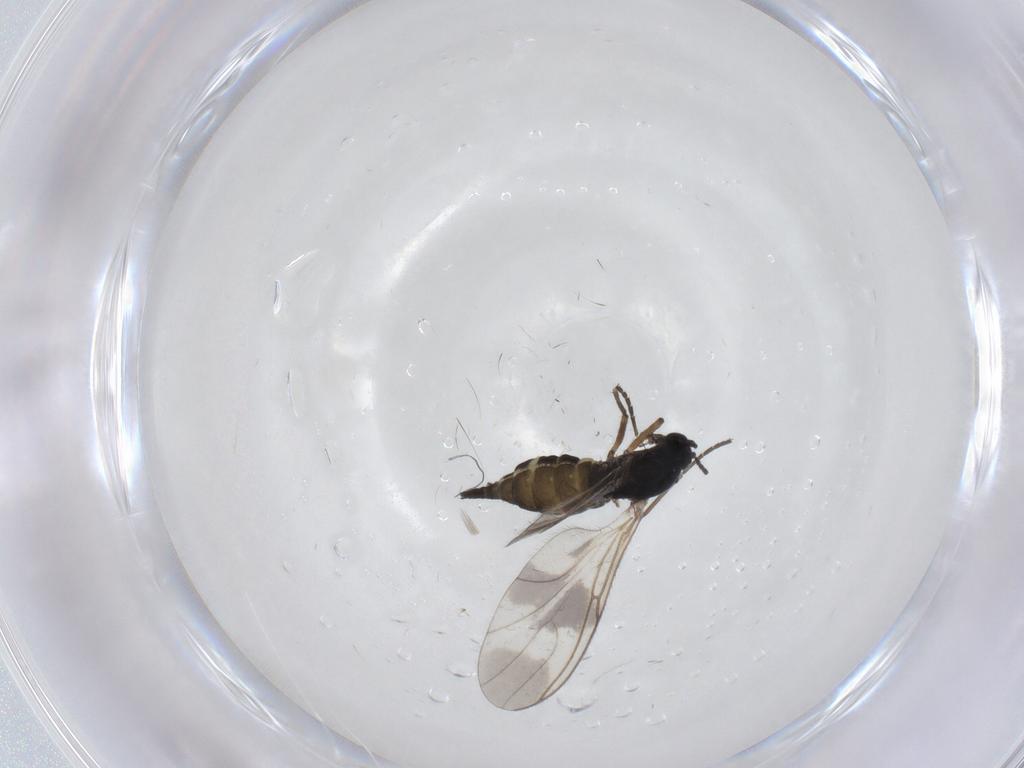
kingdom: Animalia
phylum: Arthropoda
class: Insecta
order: Diptera
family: Sciaridae
